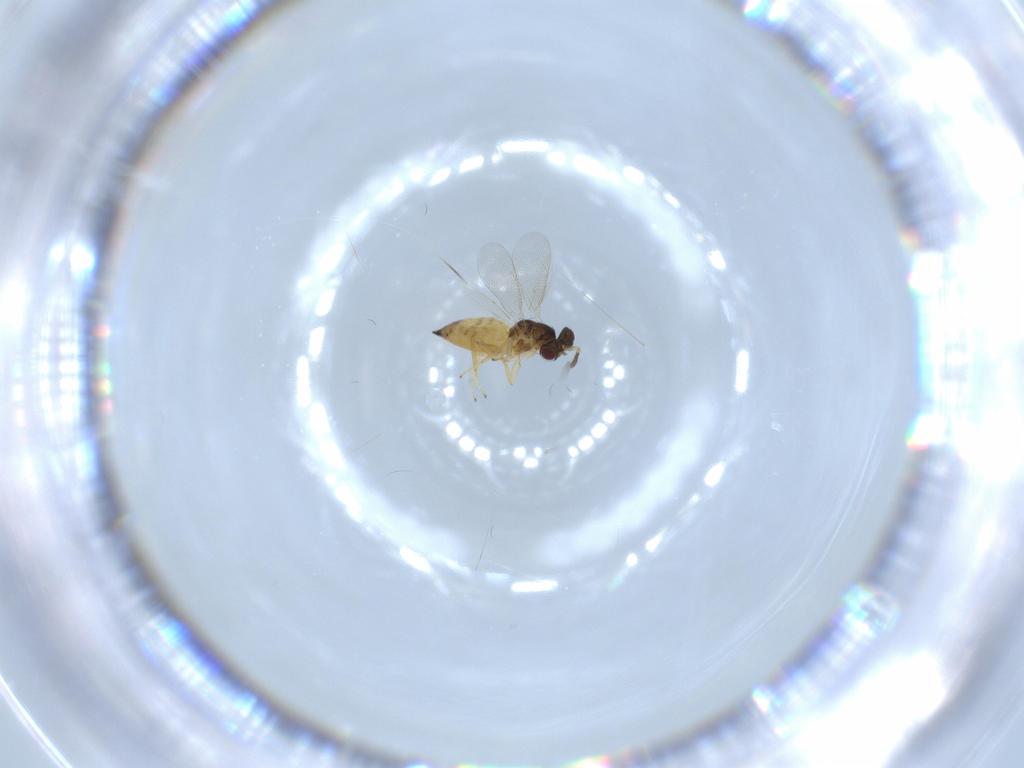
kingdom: Animalia
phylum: Arthropoda
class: Insecta
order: Hymenoptera
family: Eulophidae
